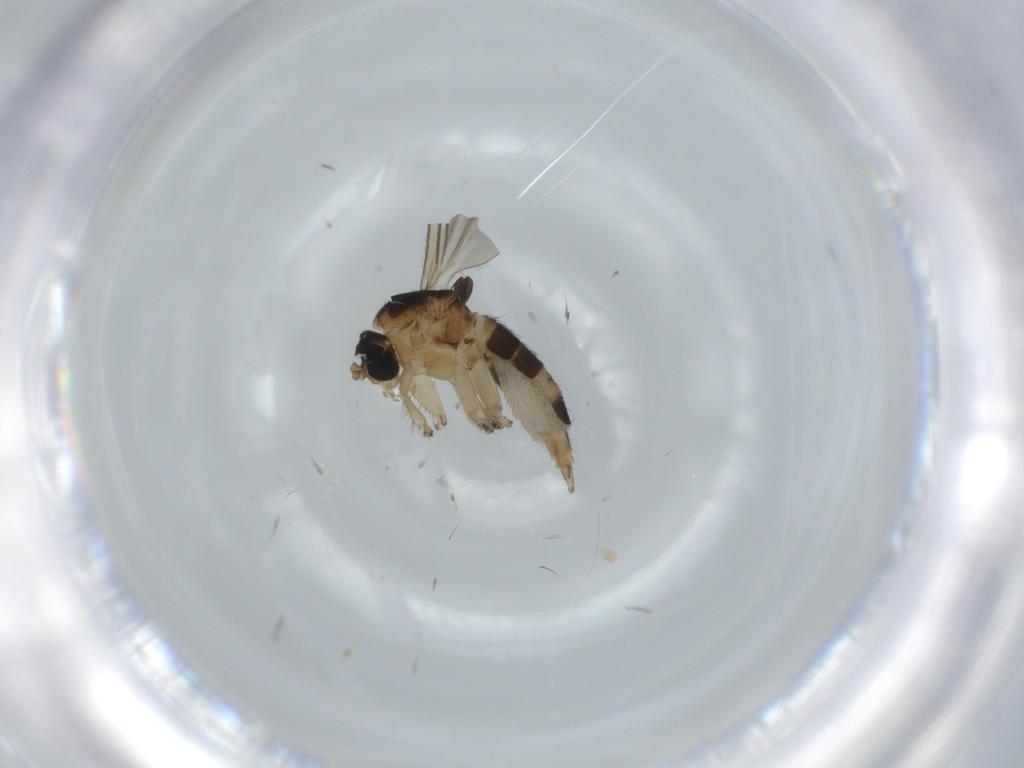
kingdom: Animalia
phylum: Arthropoda
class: Insecta
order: Diptera
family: Sciaridae
